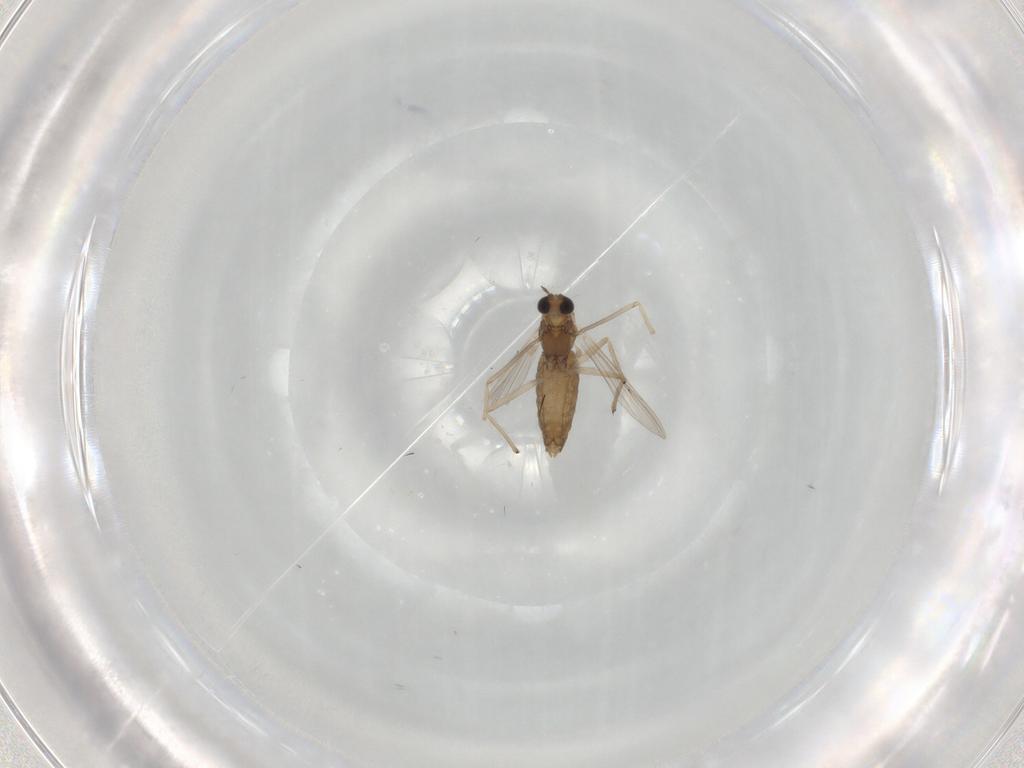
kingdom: Animalia
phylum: Arthropoda
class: Insecta
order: Diptera
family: Chironomidae
